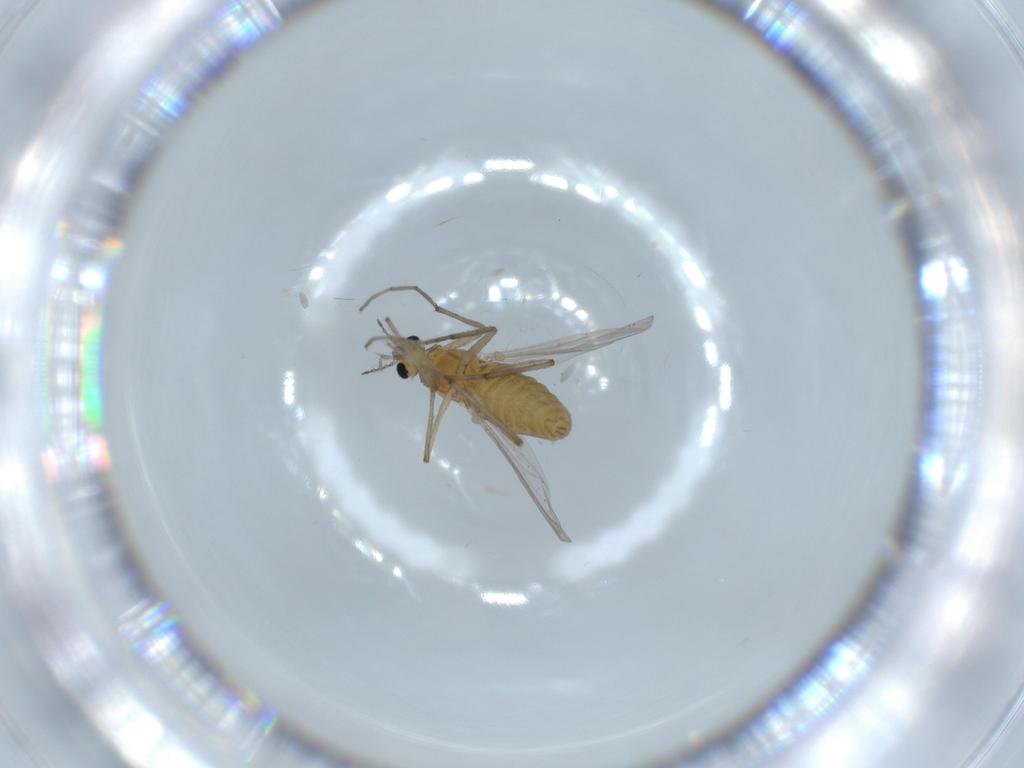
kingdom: Animalia
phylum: Arthropoda
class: Insecta
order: Diptera
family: Chironomidae
